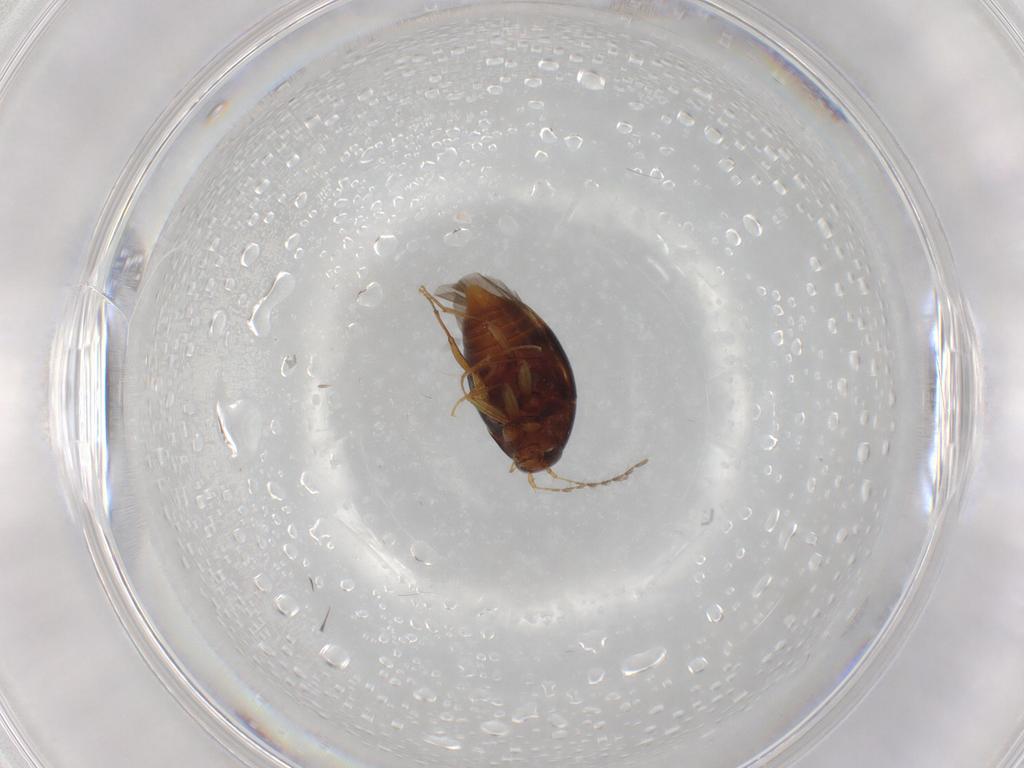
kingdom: Animalia
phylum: Arthropoda
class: Insecta
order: Coleoptera
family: Staphylinidae
